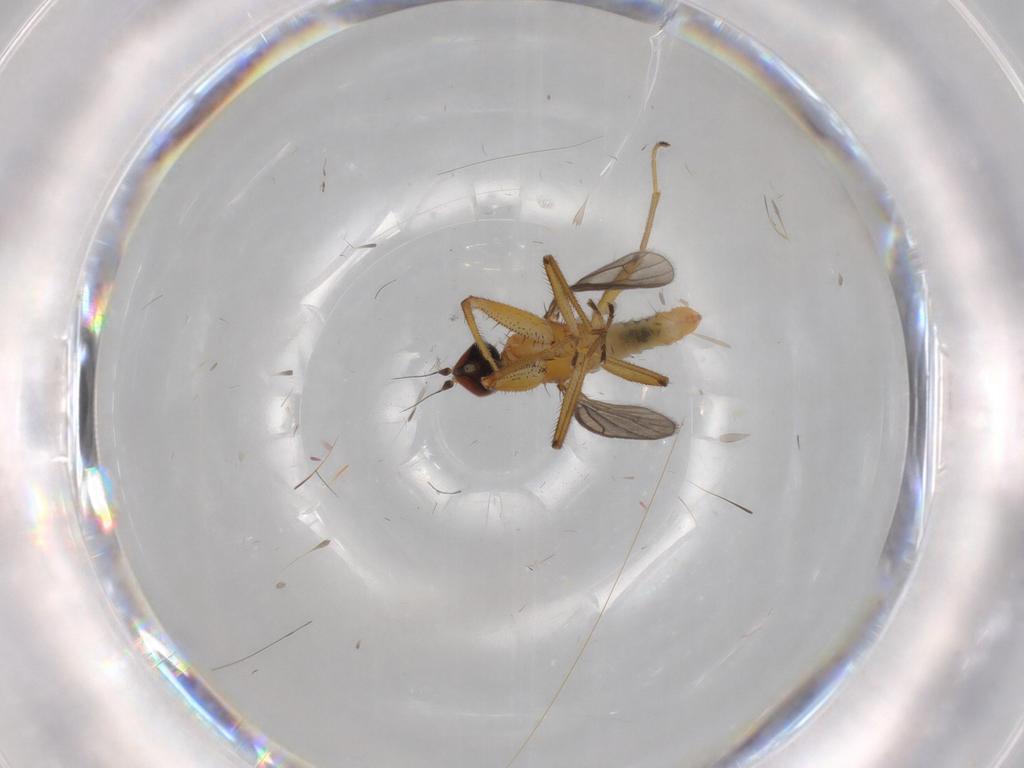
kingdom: Animalia
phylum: Arthropoda
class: Insecta
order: Diptera
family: Empididae
